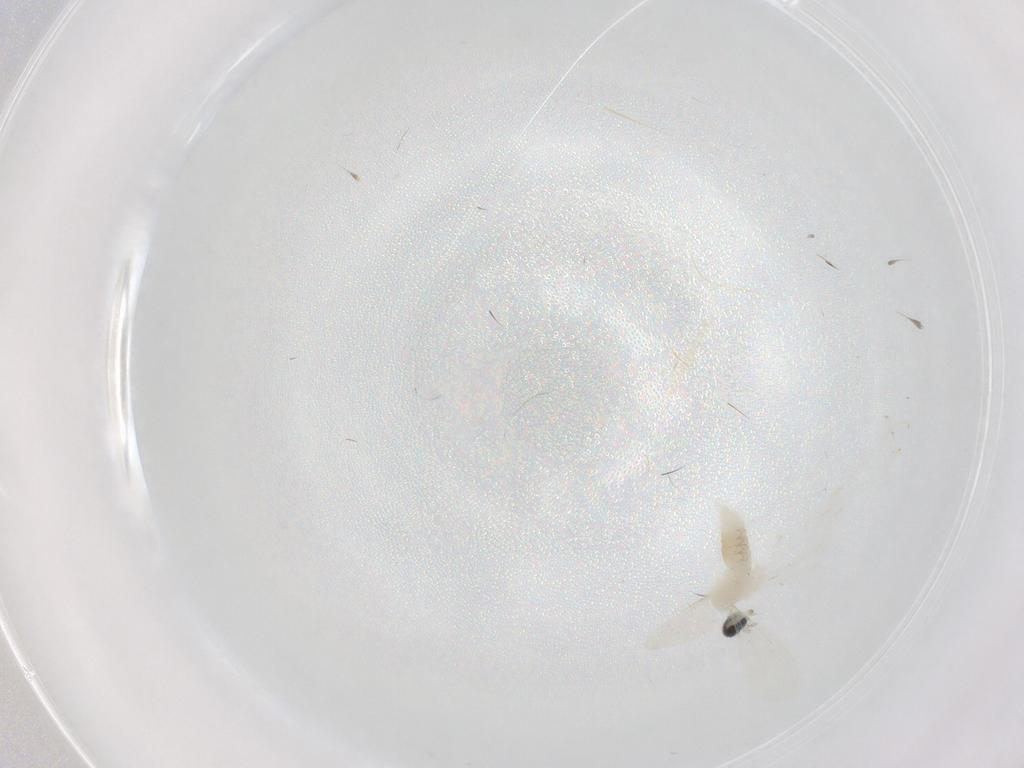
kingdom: Animalia
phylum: Arthropoda
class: Insecta
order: Diptera
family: Cecidomyiidae
